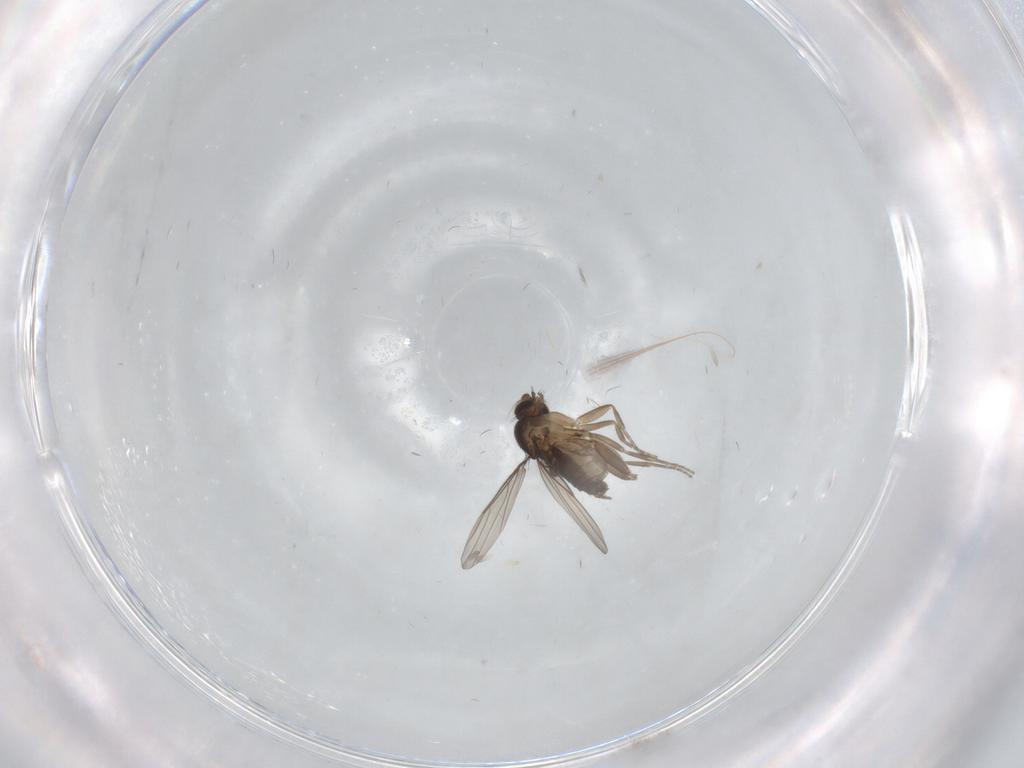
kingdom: Animalia
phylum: Arthropoda
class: Insecta
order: Diptera
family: Phoridae
